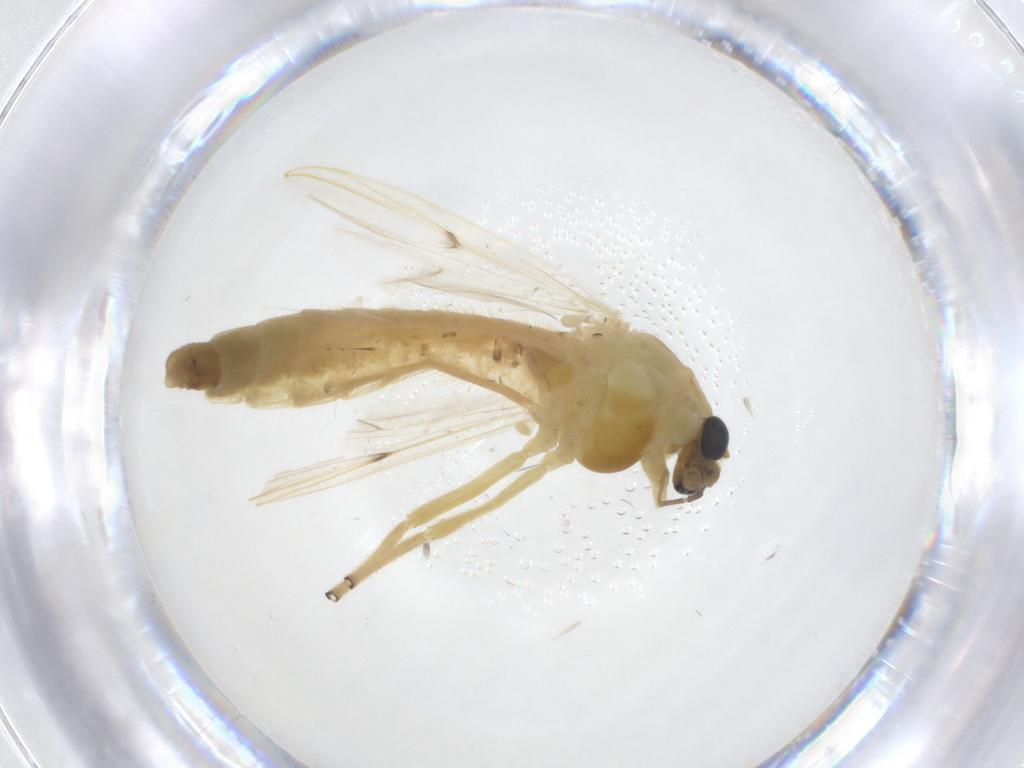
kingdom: Animalia
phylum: Arthropoda
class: Insecta
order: Diptera
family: Chironomidae
